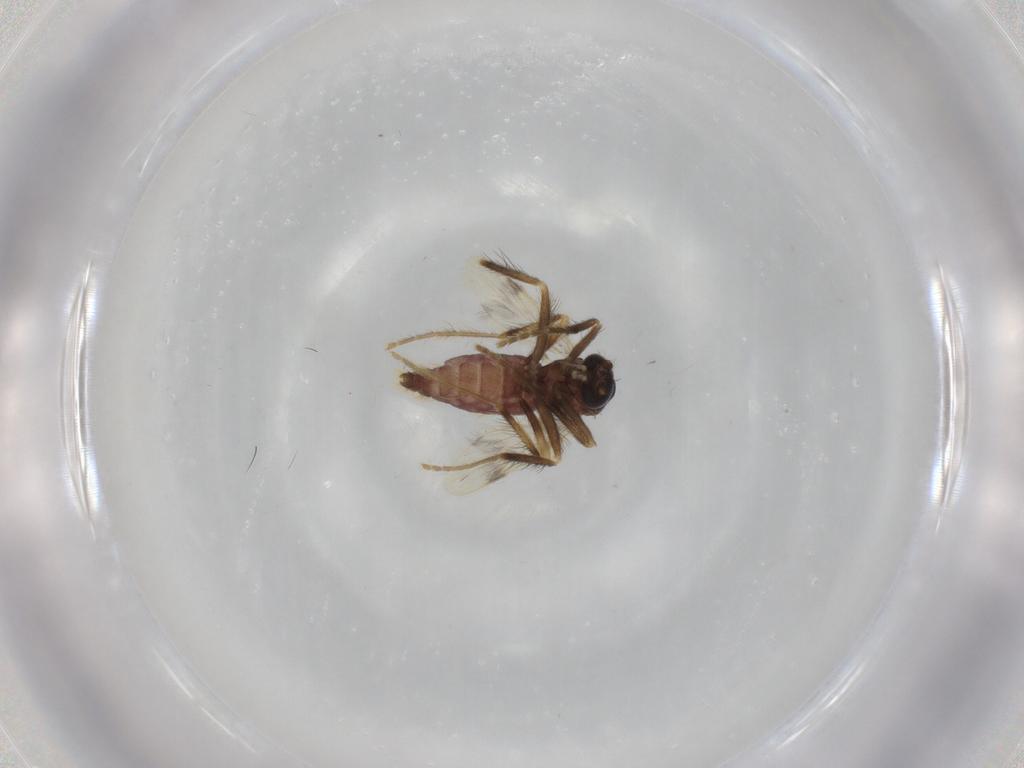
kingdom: Animalia
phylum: Arthropoda
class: Insecta
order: Diptera
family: Corethrellidae
